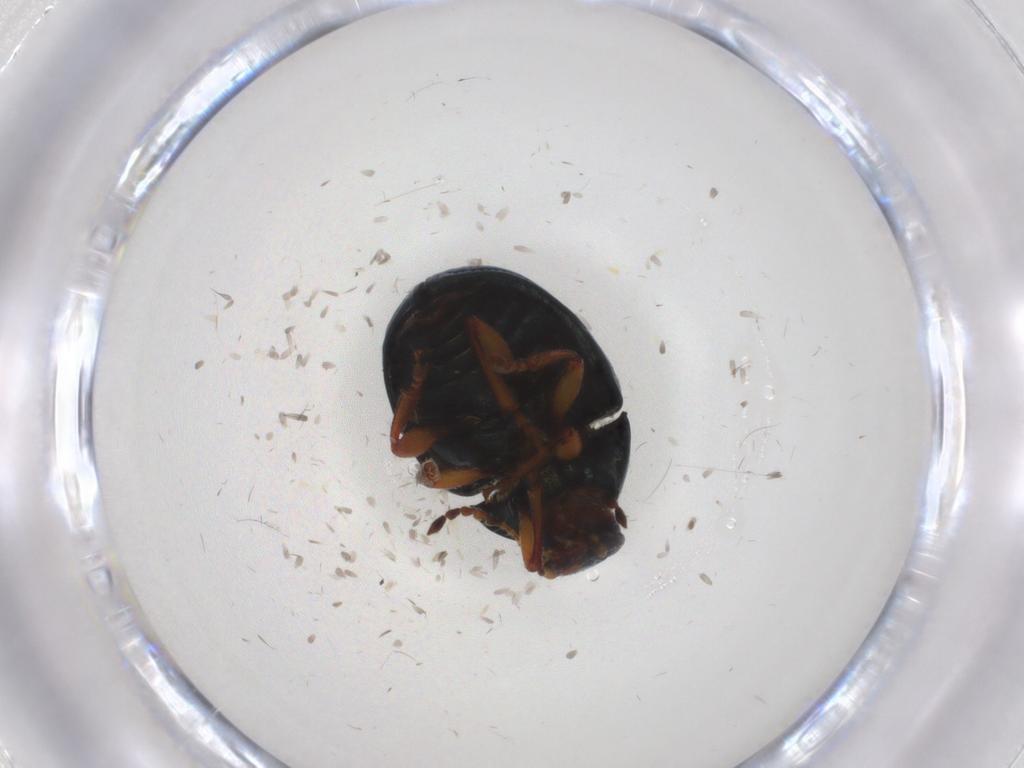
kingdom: Animalia
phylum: Arthropoda
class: Insecta
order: Coleoptera
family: Chrysomelidae
